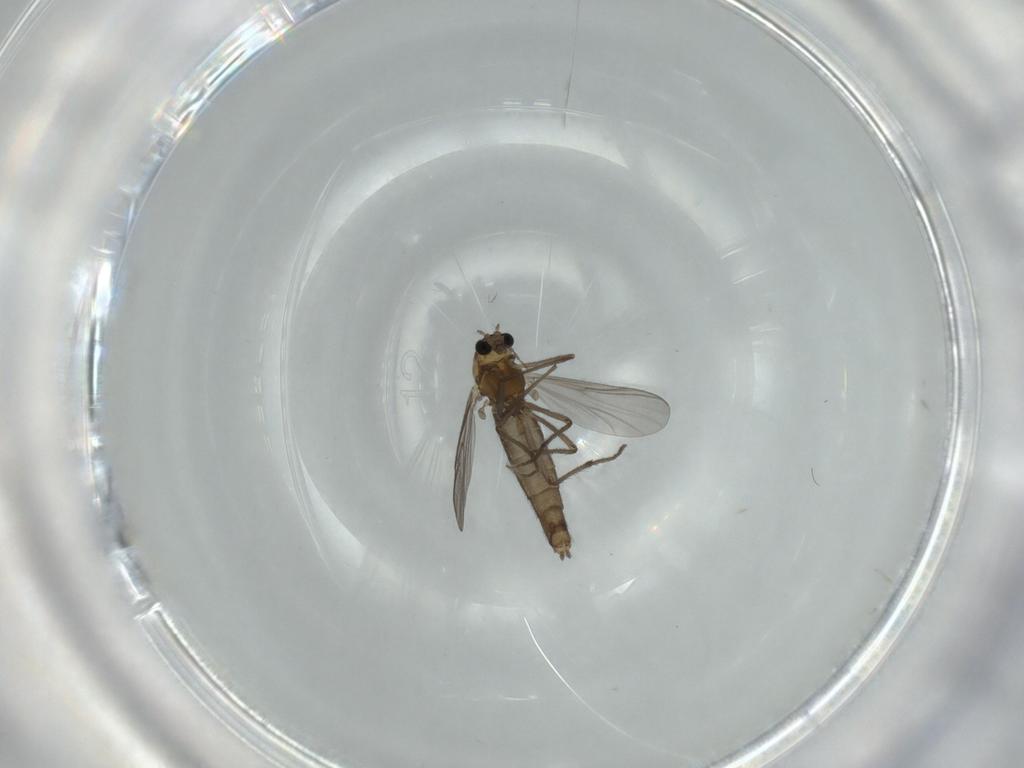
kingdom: Animalia
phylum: Arthropoda
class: Insecta
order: Diptera
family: Chironomidae
